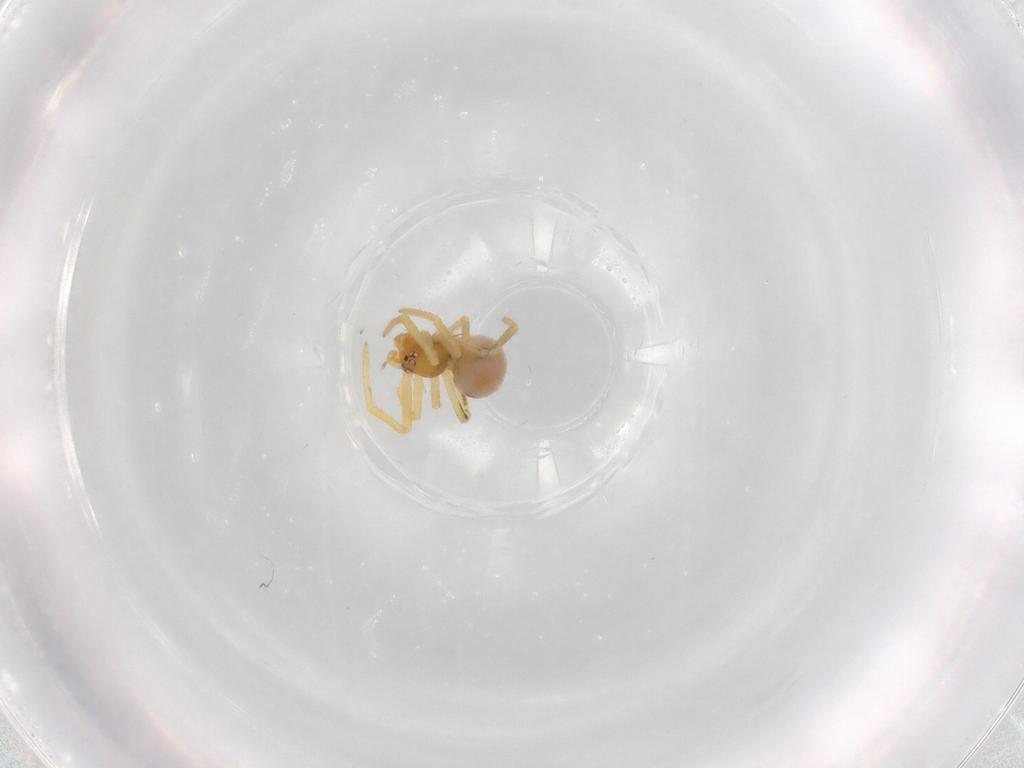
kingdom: Animalia
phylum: Arthropoda
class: Arachnida
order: Araneae
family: Theridiidae
